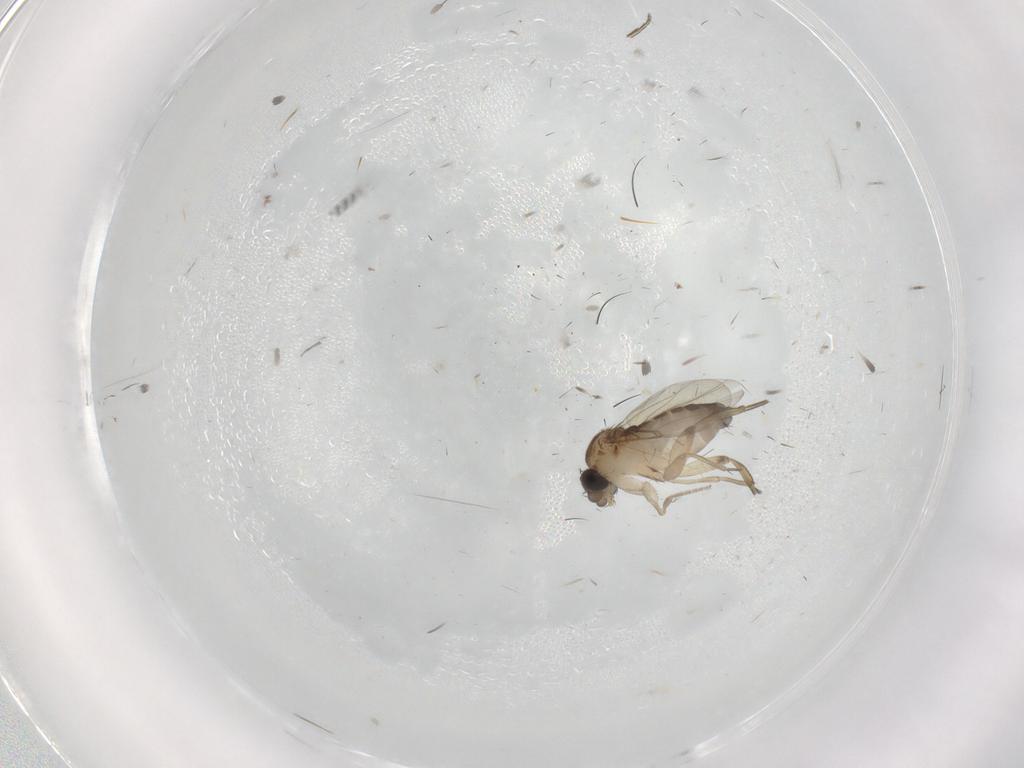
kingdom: Animalia
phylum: Arthropoda
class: Insecta
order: Diptera
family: Phoridae
